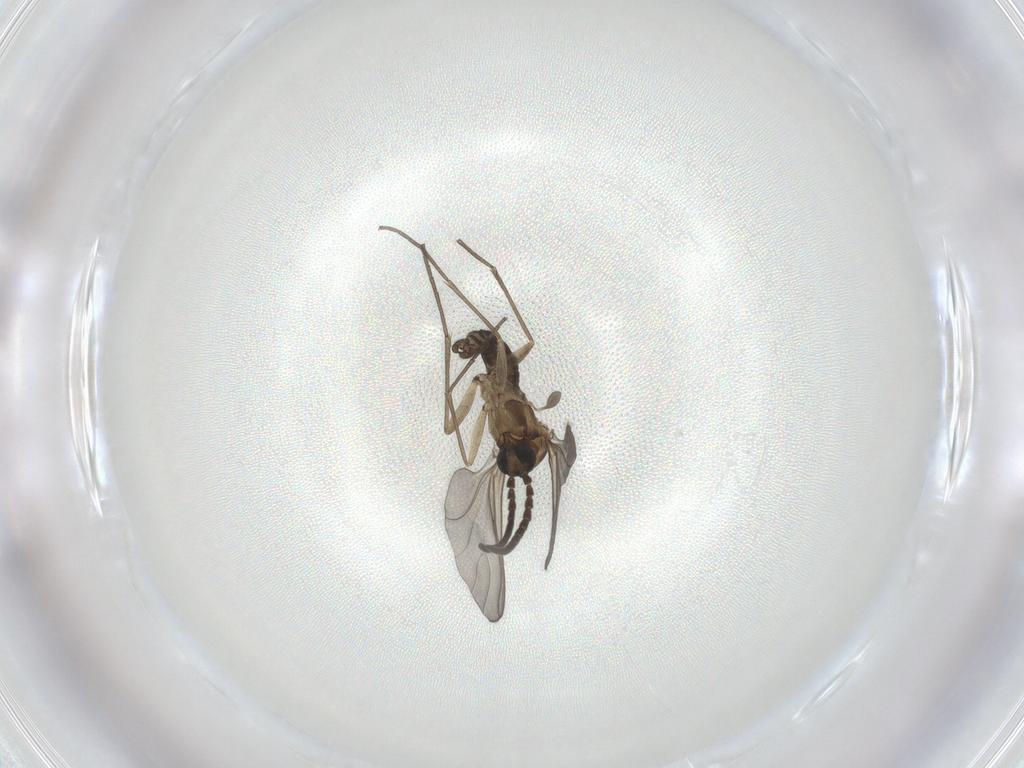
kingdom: Animalia
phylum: Arthropoda
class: Insecta
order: Diptera
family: Sciaridae
